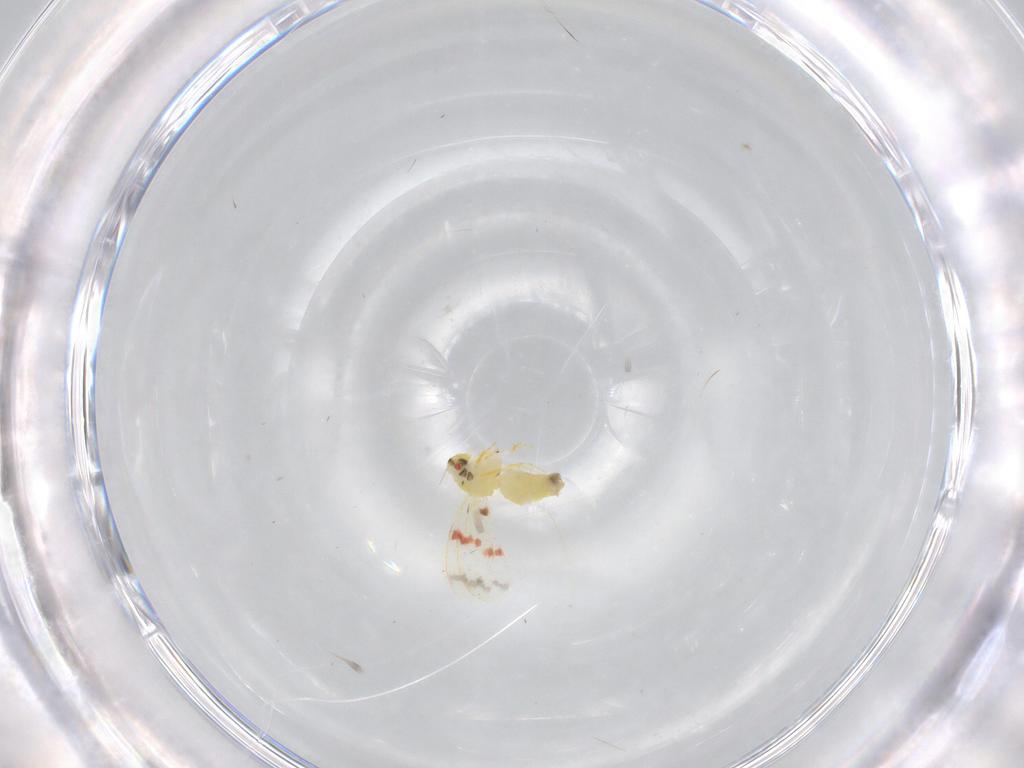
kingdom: Animalia
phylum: Arthropoda
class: Insecta
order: Hemiptera
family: Aleyrodidae
